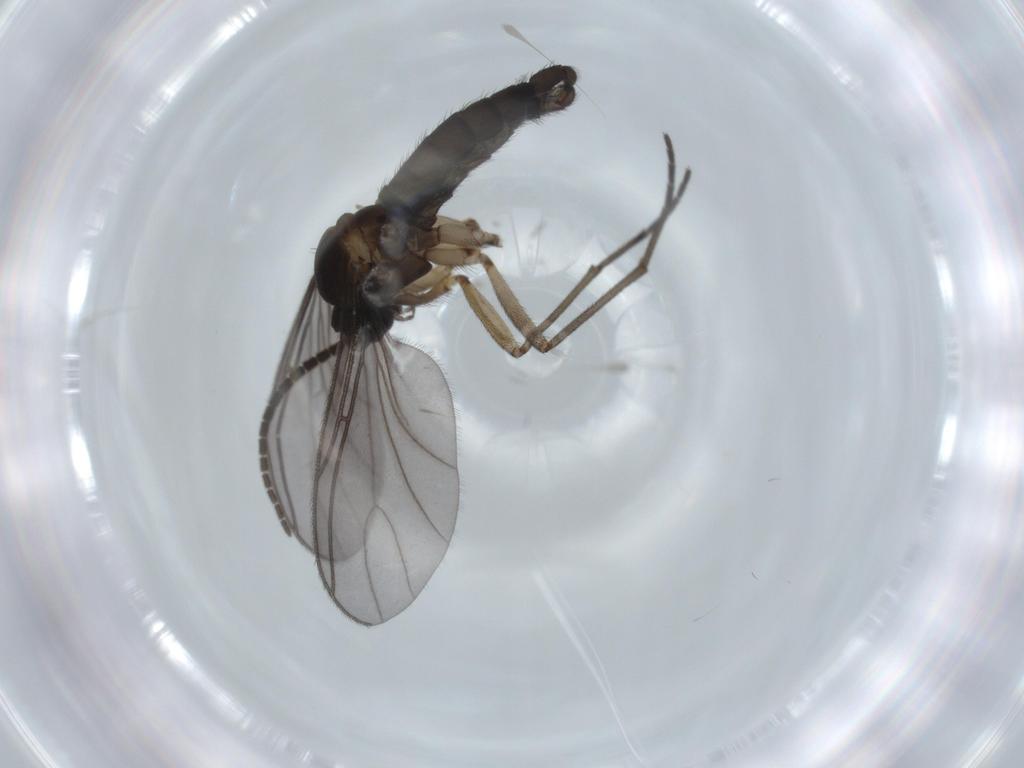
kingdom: Animalia
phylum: Arthropoda
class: Insecta
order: Diptera
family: Sciaridae
